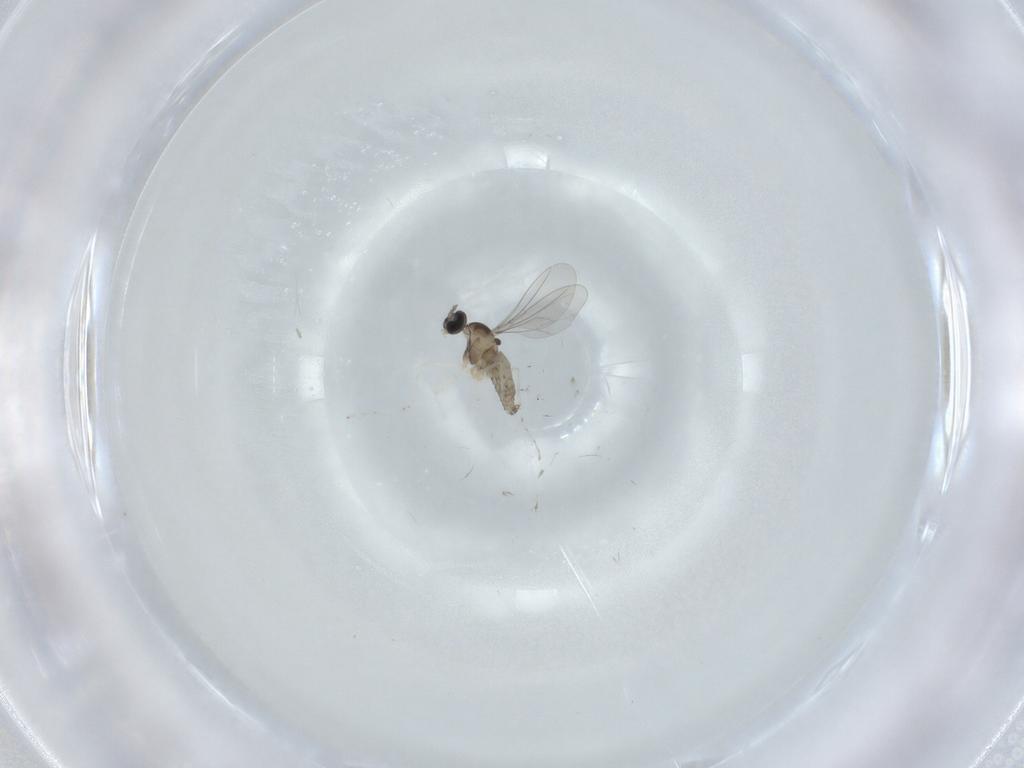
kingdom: Animalia
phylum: Arthropoda
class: Insecta
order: Diptera
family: Cecidomyiidae
